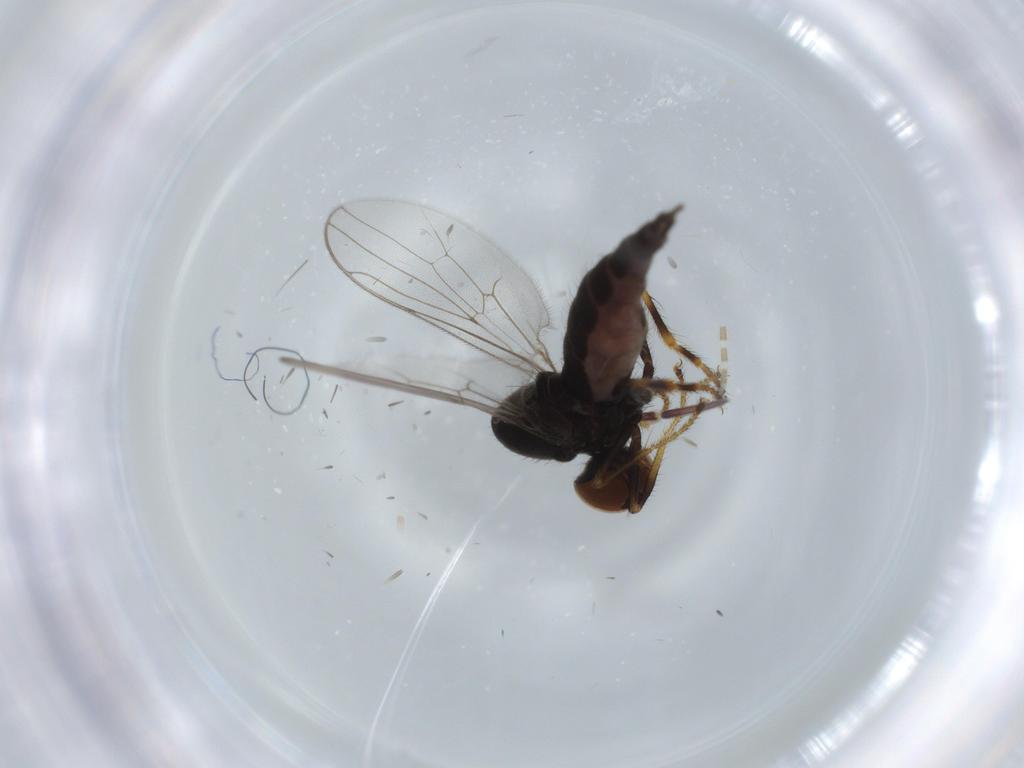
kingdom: Animalia
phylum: Arthropoda
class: Insecta
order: Diptera
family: Hybotidae
